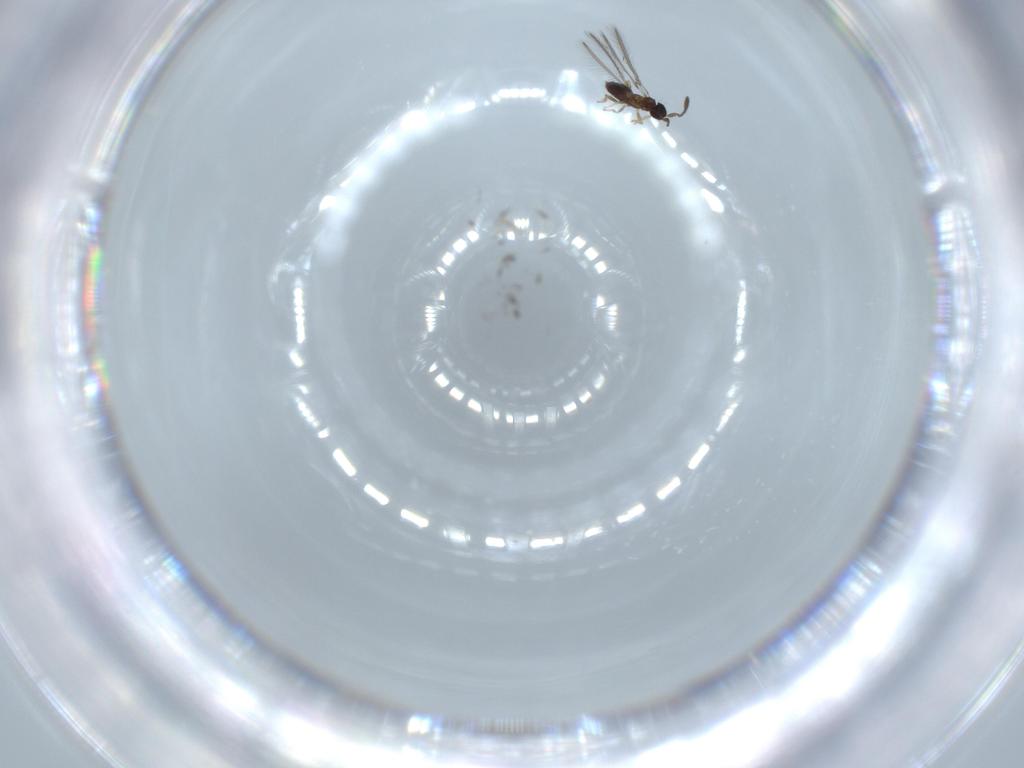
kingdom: Animalia
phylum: Arthropoda
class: Insecta
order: Hymenoptera
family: Mymaridae
